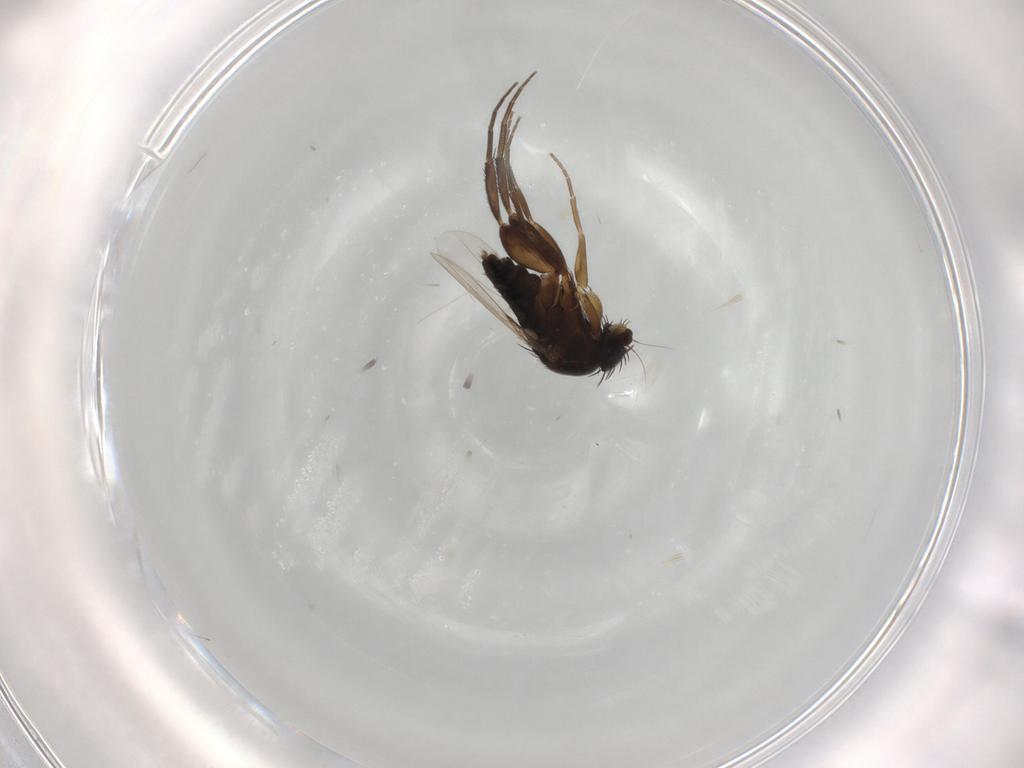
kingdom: Animalia
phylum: Arthropoda
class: Insecta
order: Diptera
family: Phoridae
